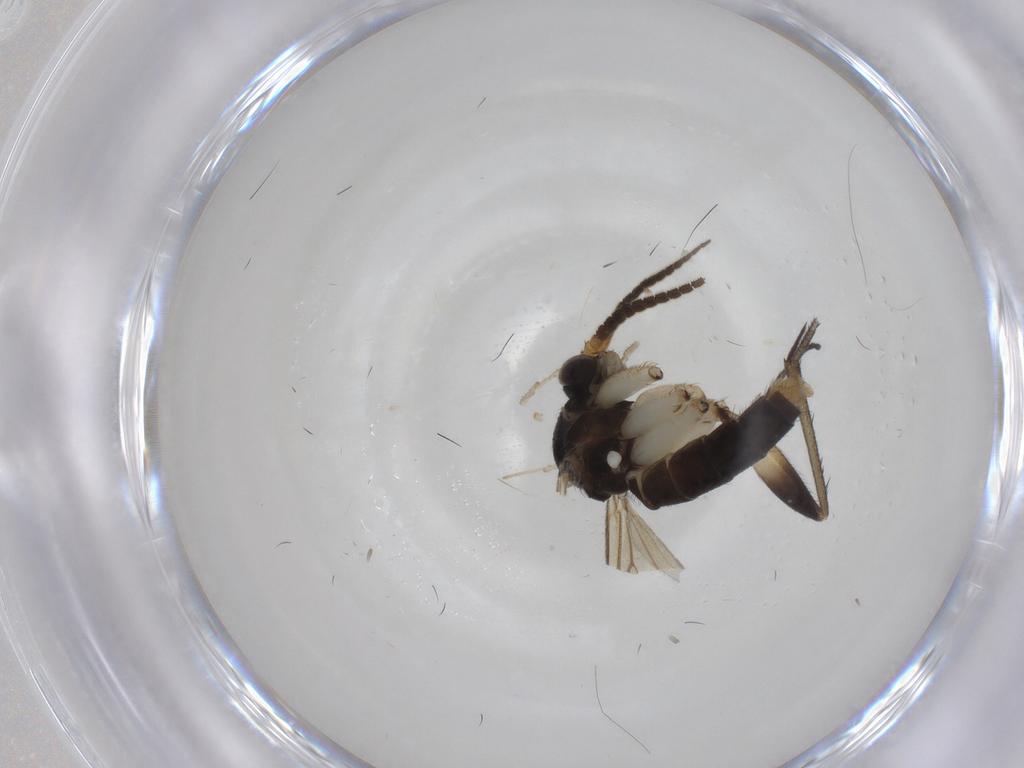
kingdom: Animalia
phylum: Arthropoda
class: Insecta
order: Diptera
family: Mycetophilidae
